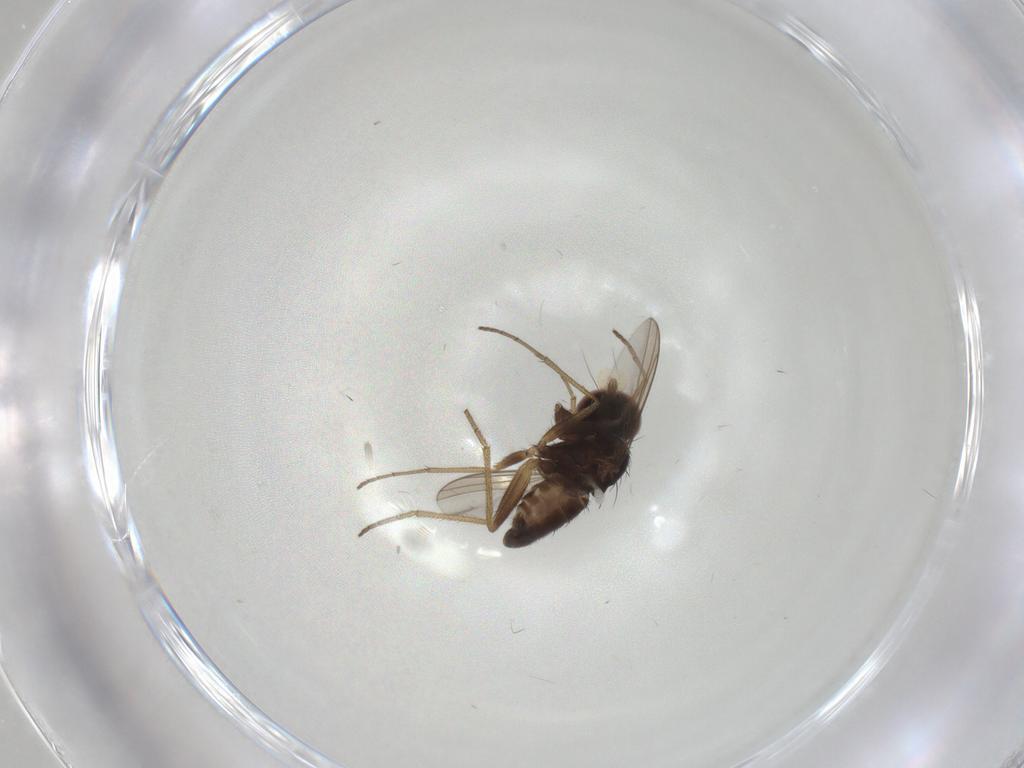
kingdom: Animalia
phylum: Arthropoda
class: Insecta
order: Diptera
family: Dolichopodidae
